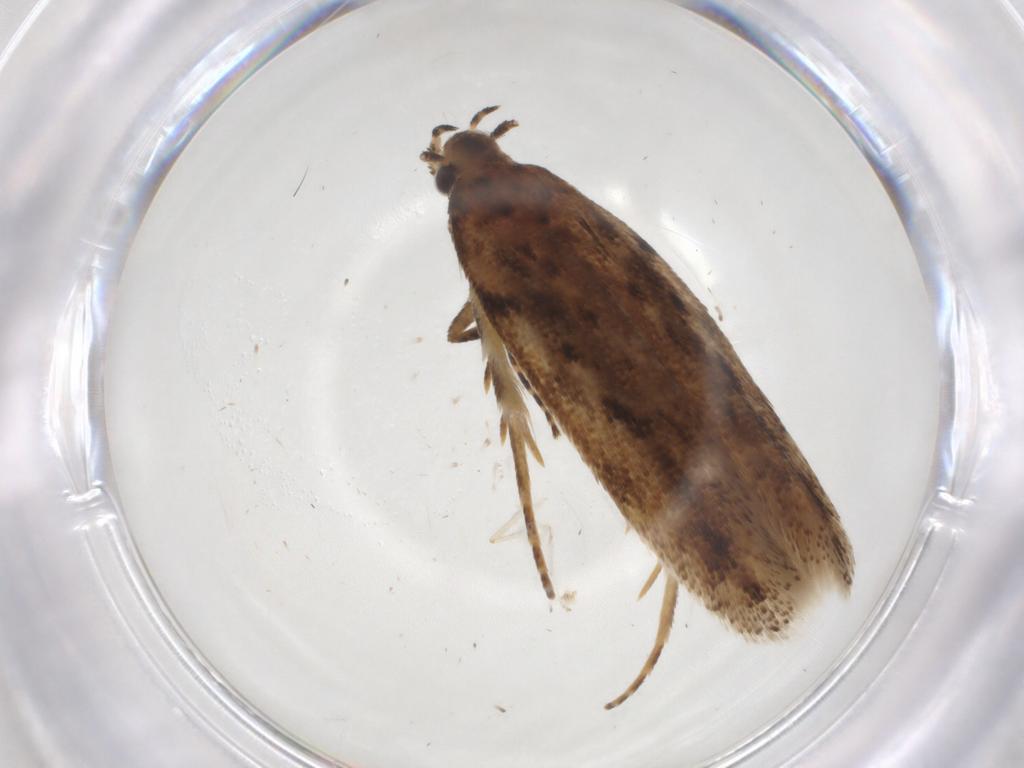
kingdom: Animalia
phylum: Arthropoda
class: Insecta
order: Lepidoptera
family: Gelechiidae
